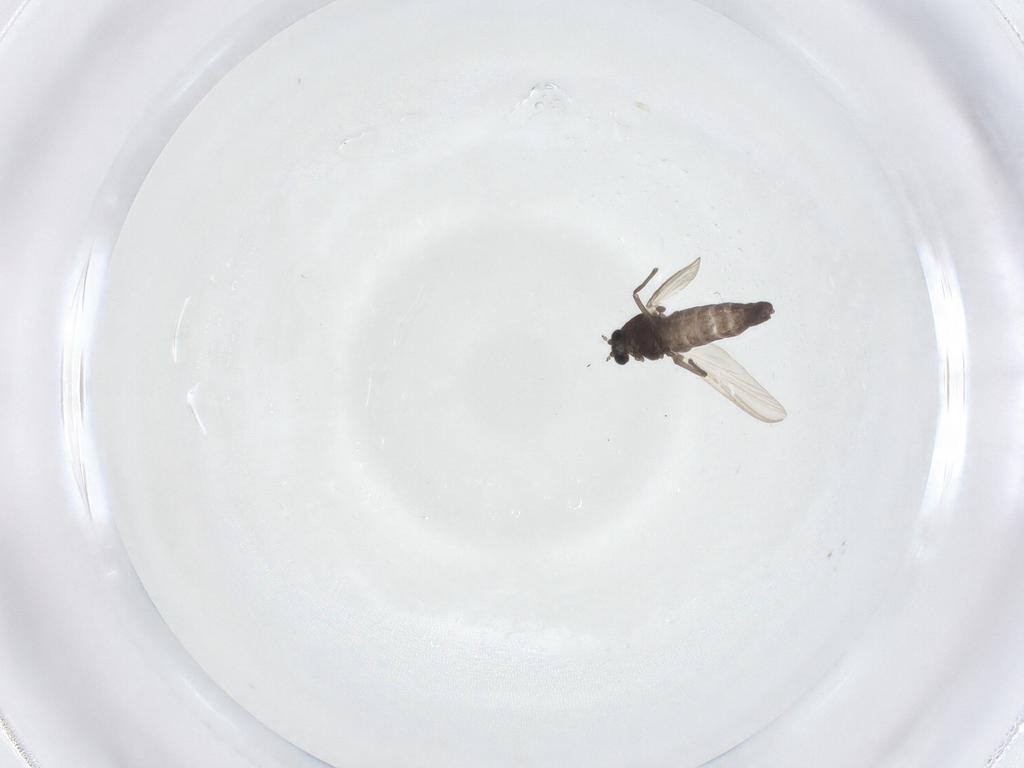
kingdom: Animalia
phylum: Arthropoda
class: Insecta
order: Diptera
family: Chironomidae
